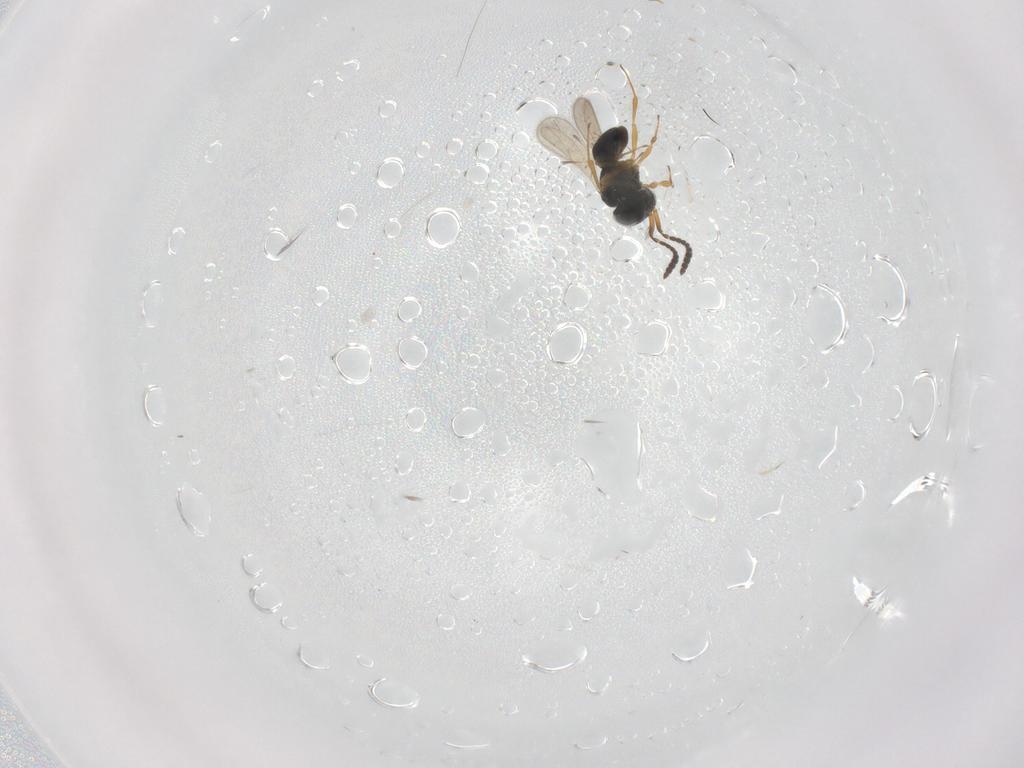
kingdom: Animalia
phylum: Arthropoda
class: Insecta
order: Hymenoptera
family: Scelionidae
